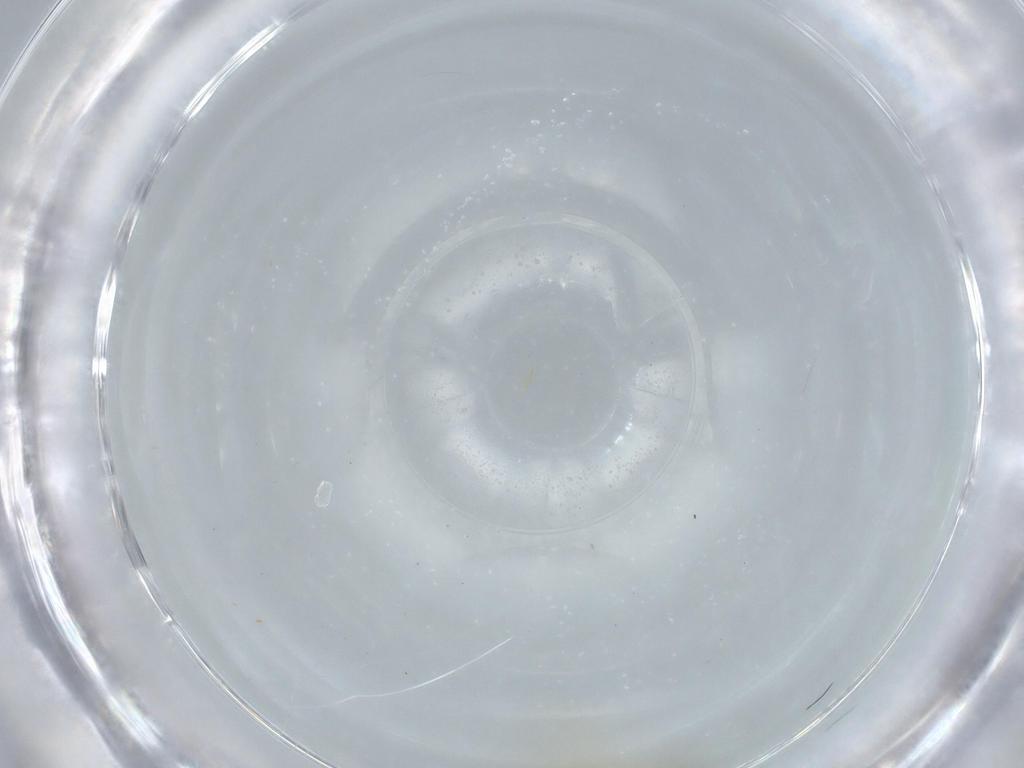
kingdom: Animalia
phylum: Arthropoda
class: Insecta
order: Diptera
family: Chironomidae
